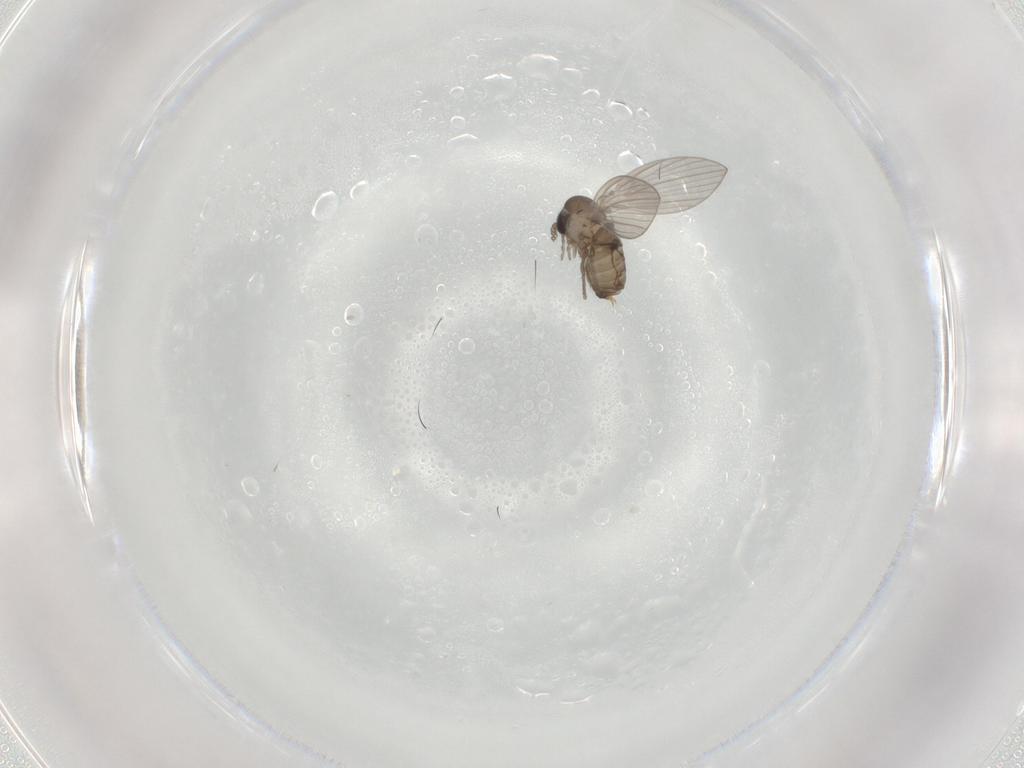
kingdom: Animalia
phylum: Arthropoda
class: Insecta
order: Diptera
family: Psychodidae
